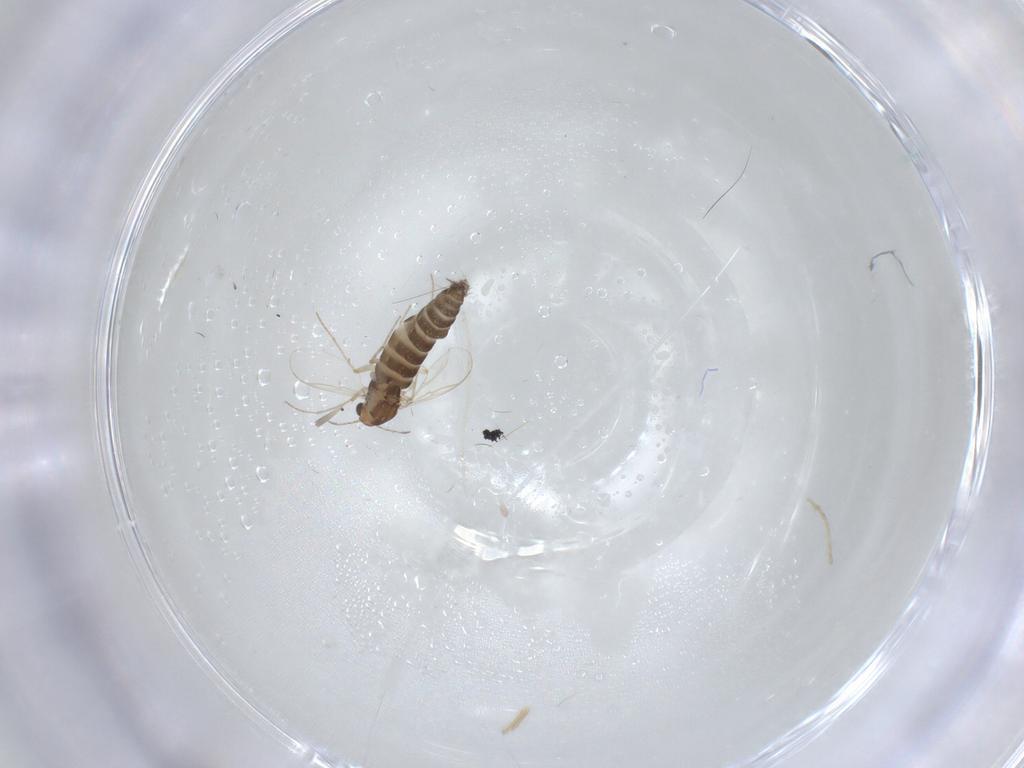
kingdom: Animalia
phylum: Arthropoda
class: Insecta
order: Diptera
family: Chironomidae
